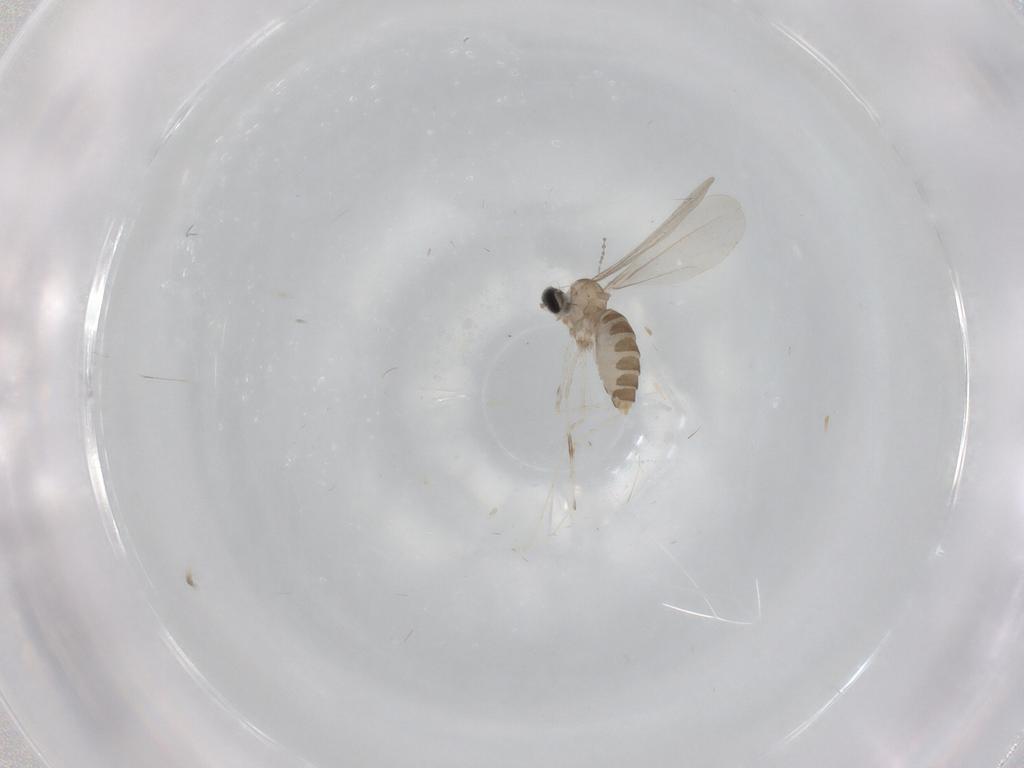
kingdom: Animalia
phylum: Arthropoda
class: Insecta
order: Diptera
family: Cecidomyiidae
